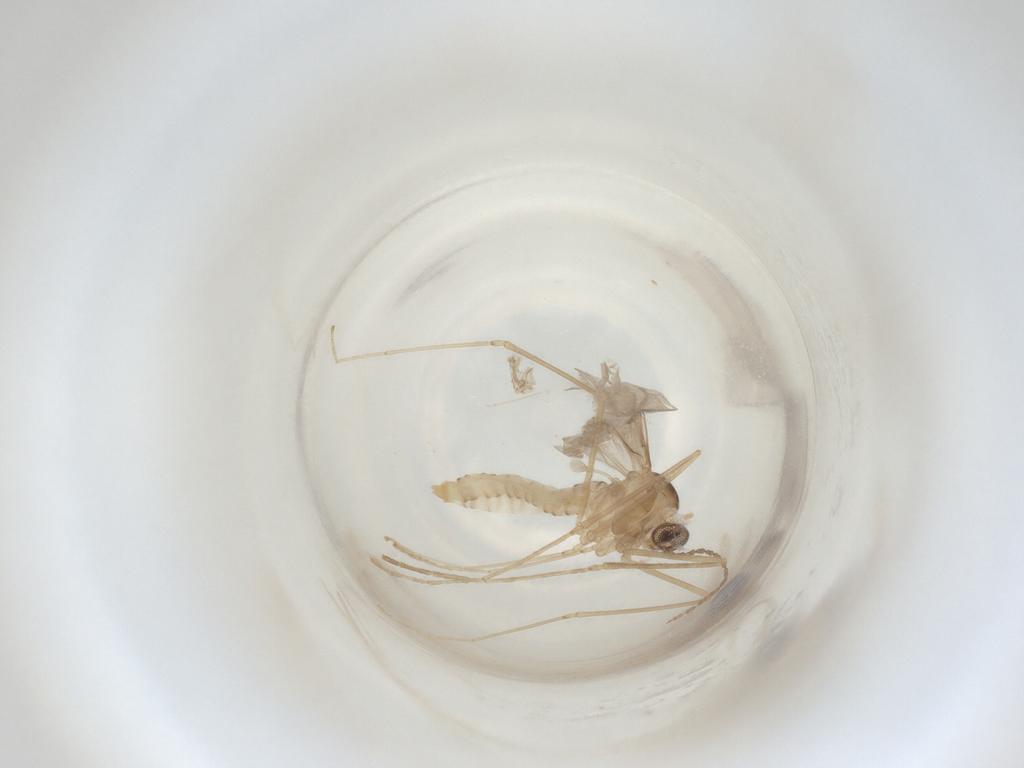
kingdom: Animalia
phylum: Arthropoda
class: Insecta
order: Diptera
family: Cecidomyiidae
